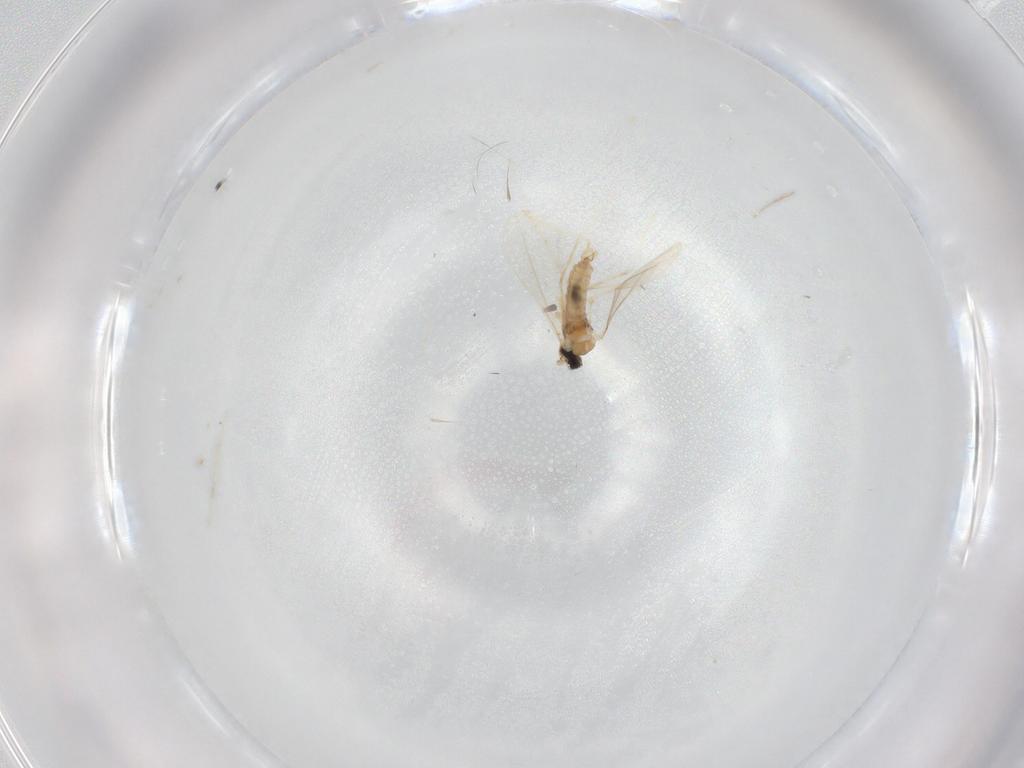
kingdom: Animalia
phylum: Arthropoda
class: Insecta
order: Diptera
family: Cecidomyiidae
